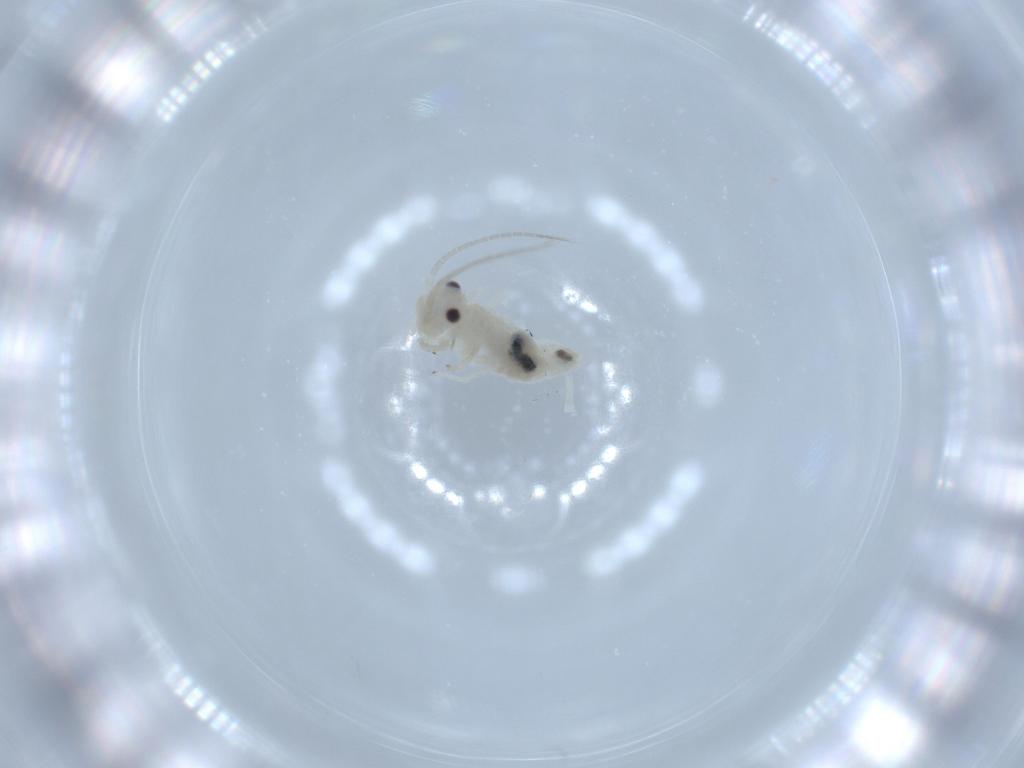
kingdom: Animalia
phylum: Arthropoda
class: Insecta
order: Psocodea
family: Caeciliusidae
